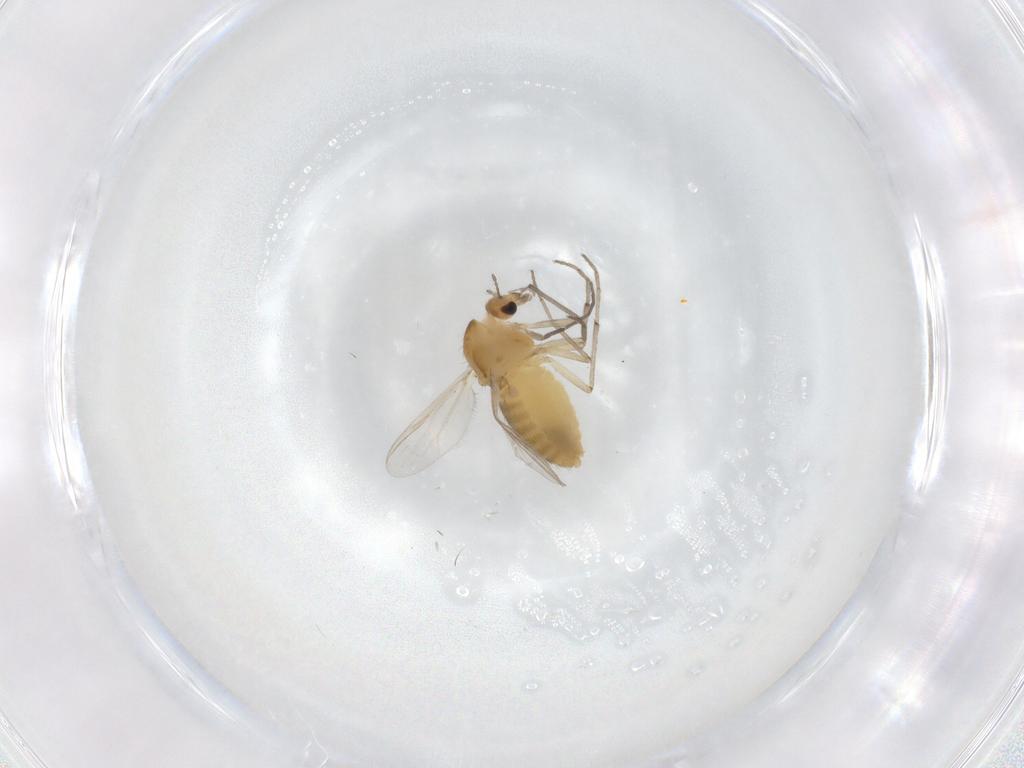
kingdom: Animalia
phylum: Arthropoda
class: Insecta
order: Diptera
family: Chironomidae
